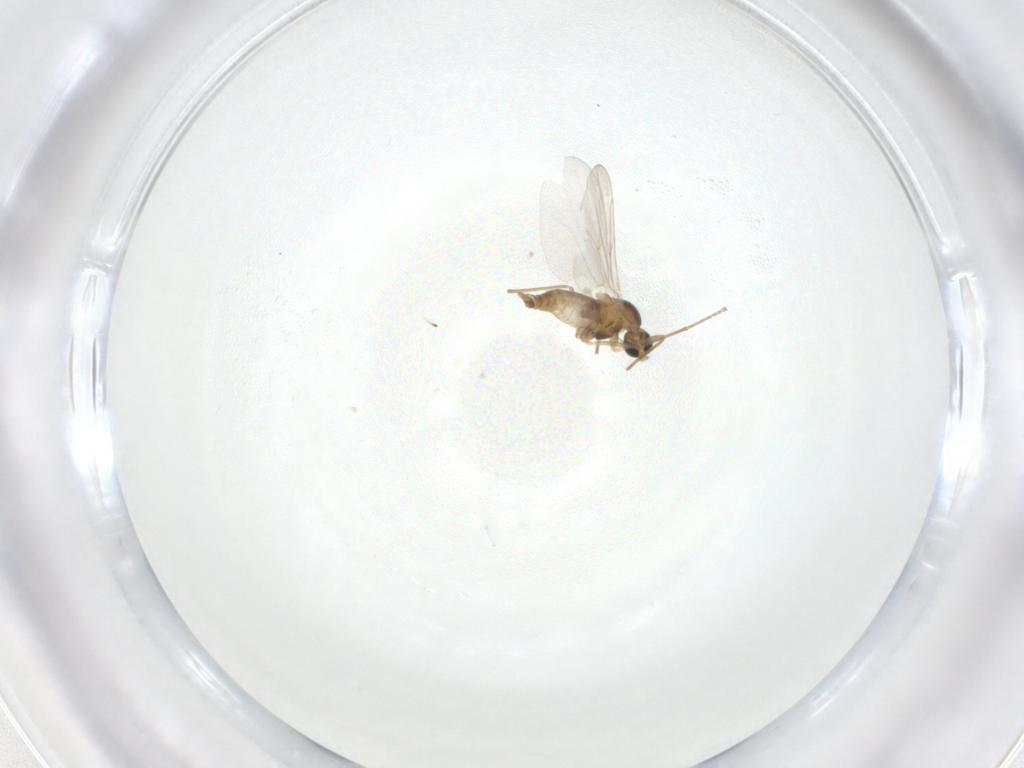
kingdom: Animalia
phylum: Arthropoda
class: Insecta
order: Diptera
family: Cecidomyiidae
